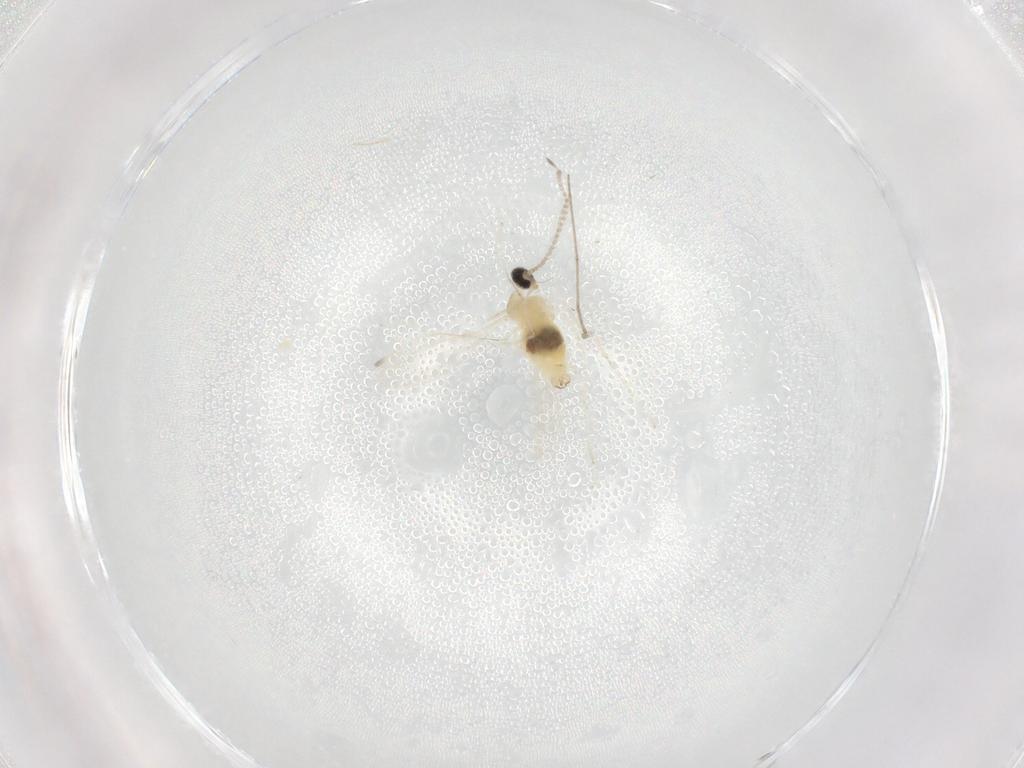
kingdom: Animalia
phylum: Arthropoda
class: Insecta
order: Diptera
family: Cecidomyiidae
